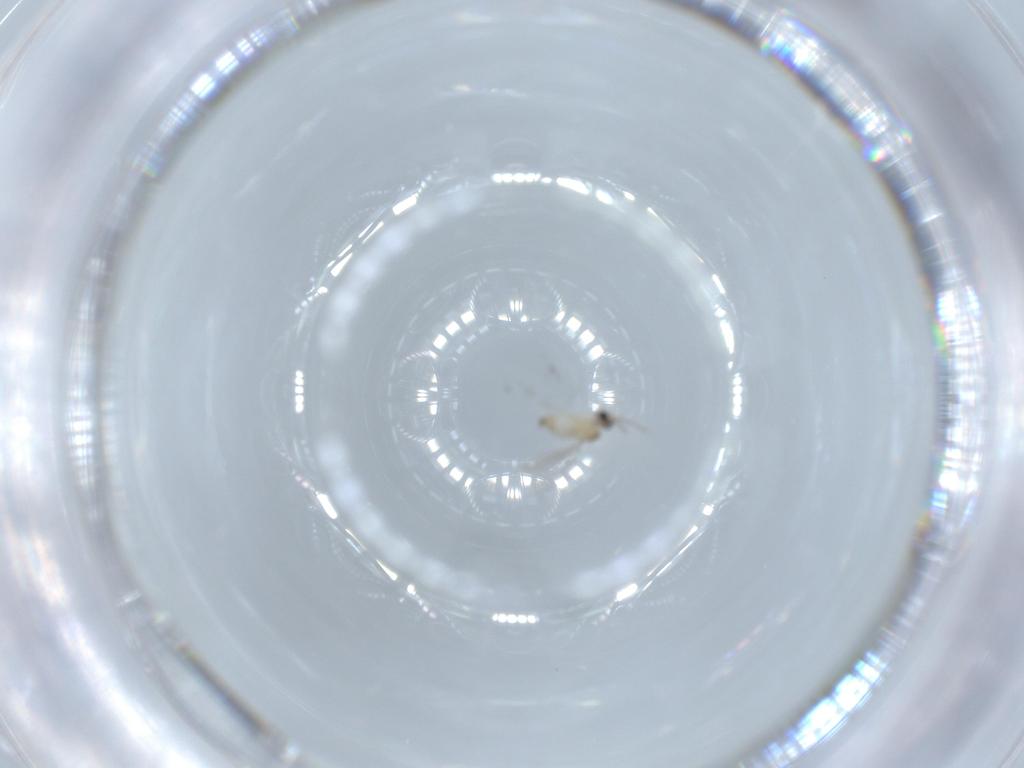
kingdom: Animalia
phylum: Arthropoda
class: Insecta
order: Diptera
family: Cecidomyiidae
